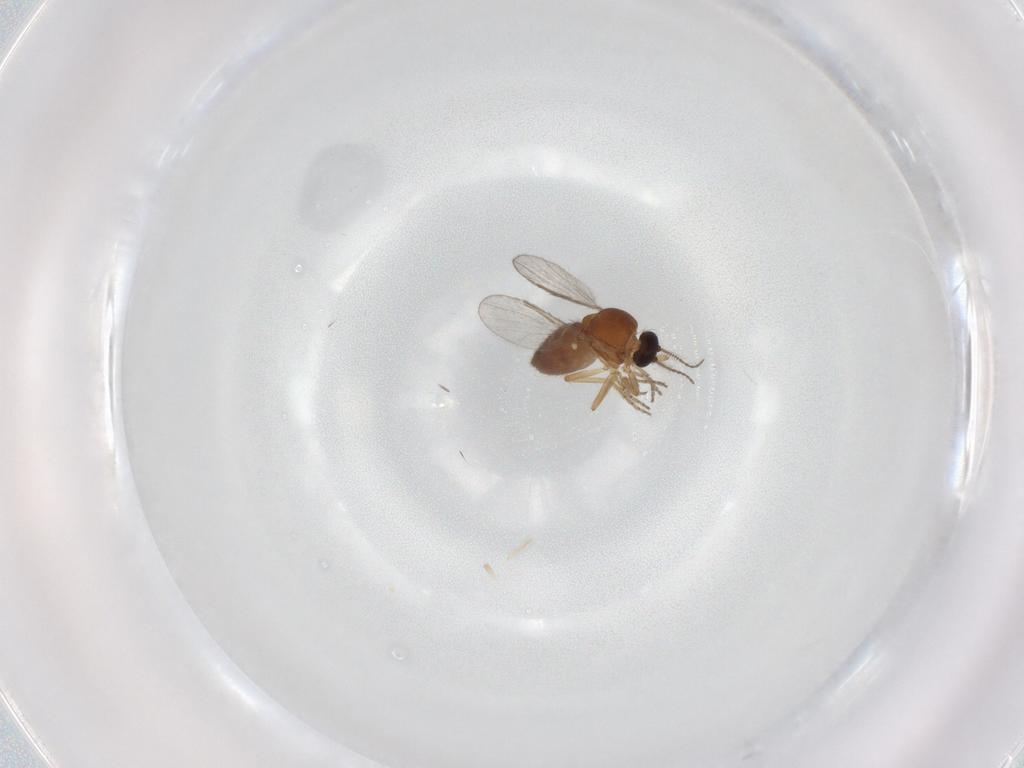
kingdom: Animalia
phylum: Arthropoda
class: Insecta
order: Diptera
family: Ceratopogonidae
